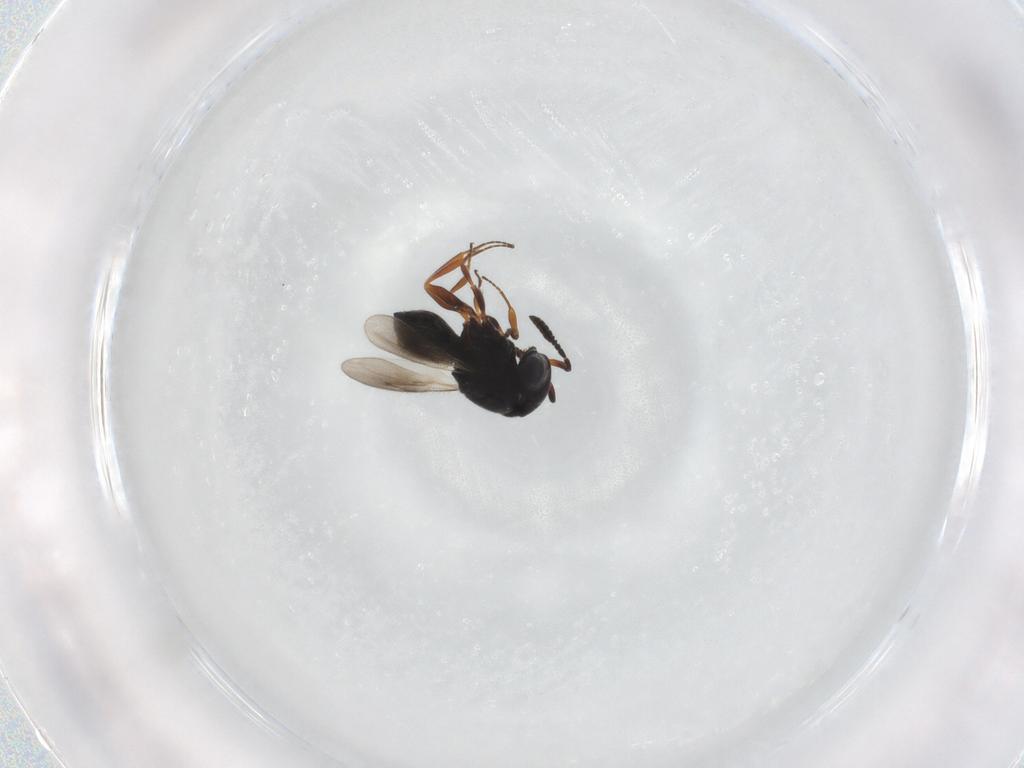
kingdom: Animalia
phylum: Arthropoda
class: Insecta
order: Hymenoptera
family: Scelionidae
